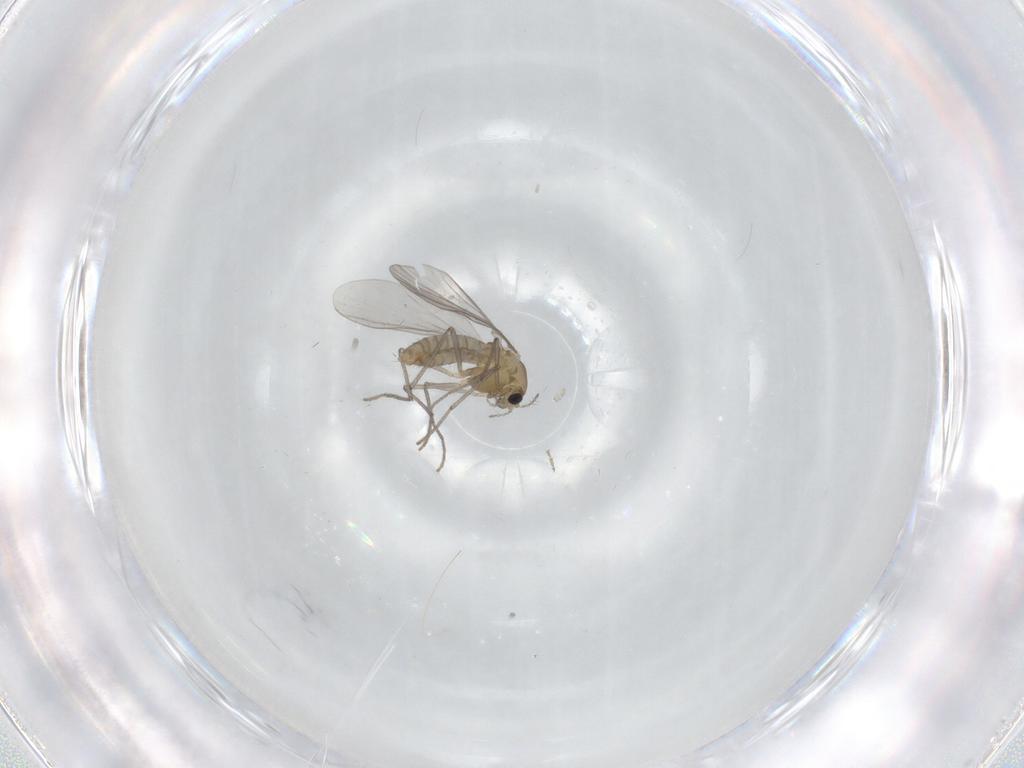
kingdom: Animalia
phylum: Arthropoda
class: Insecta
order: Diptera
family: Chironomidae
